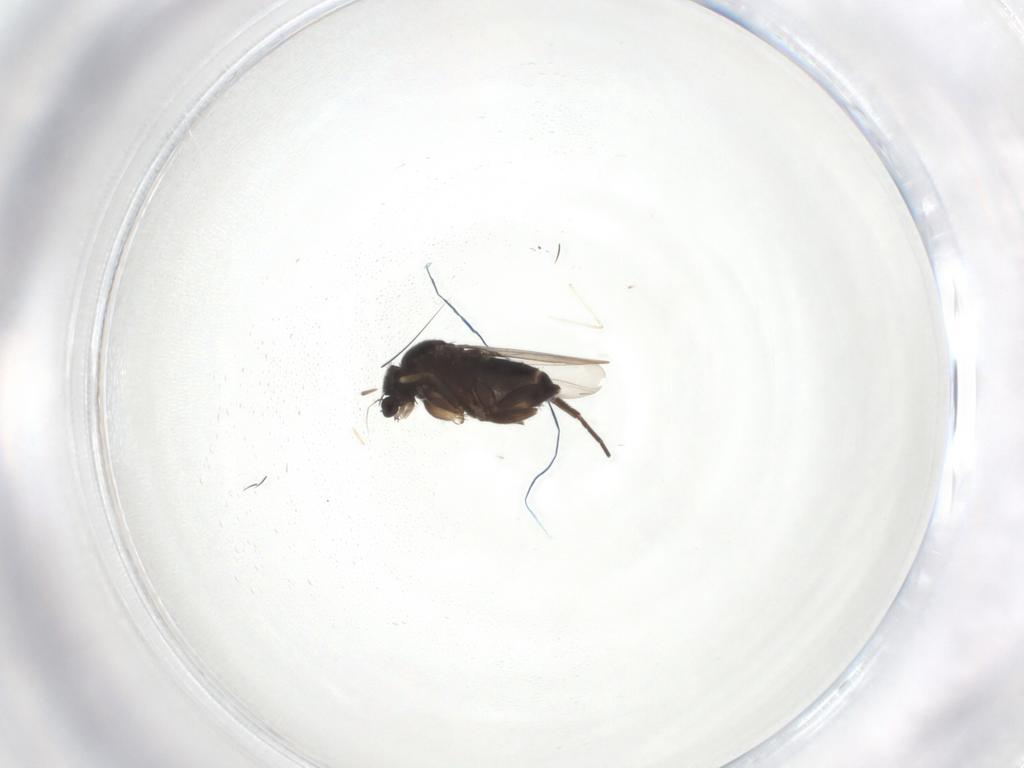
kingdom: Animalia
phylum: Arthropoda
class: Insecta
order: Diptera
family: Cecidomyiidae
